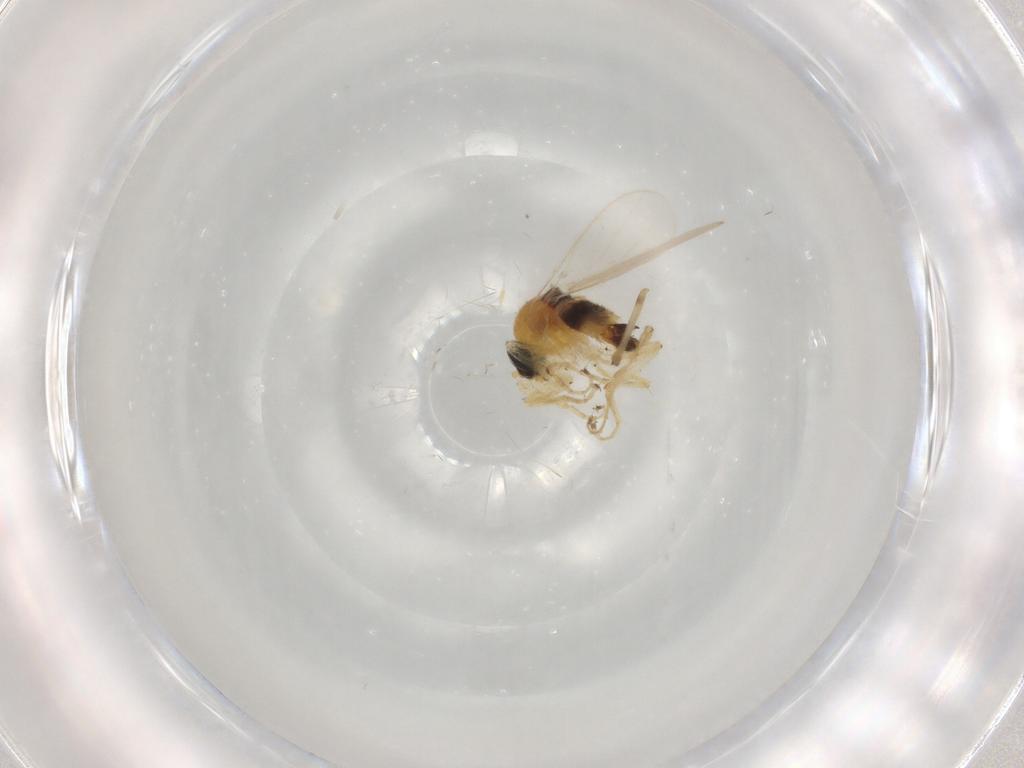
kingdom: Animalia
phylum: Arthropoda
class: Insecta
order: Diptera
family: Hybotidae
